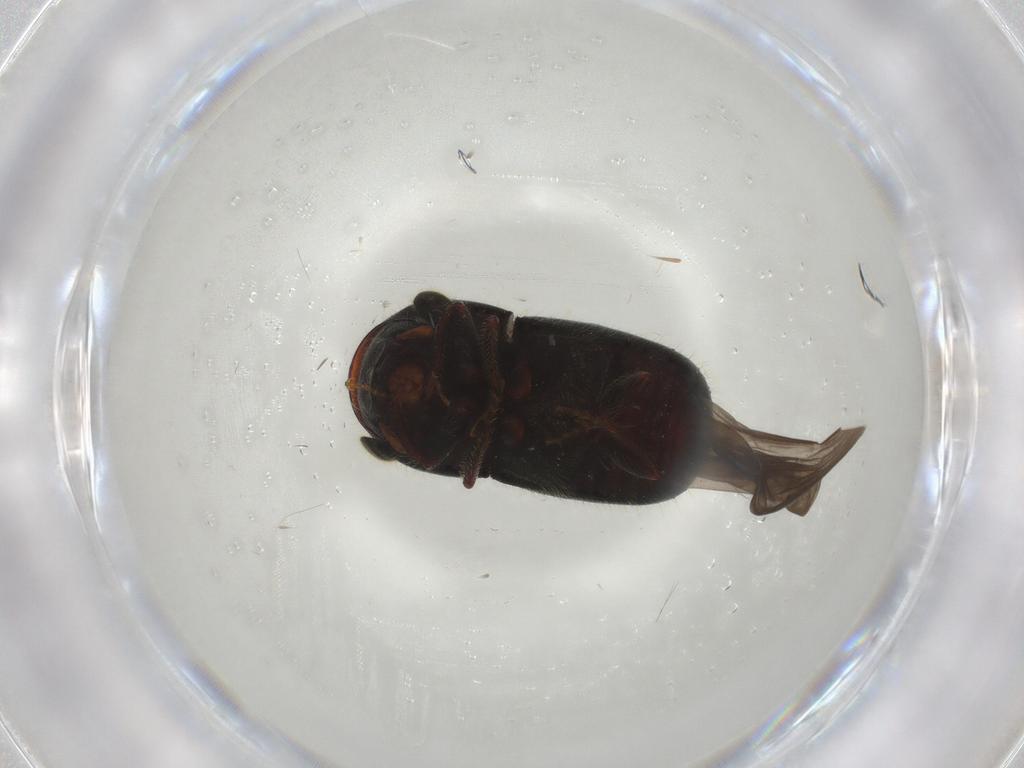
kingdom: Animalia
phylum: Arthropoda
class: Insecta
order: Coleoptera
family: Curculionidae
